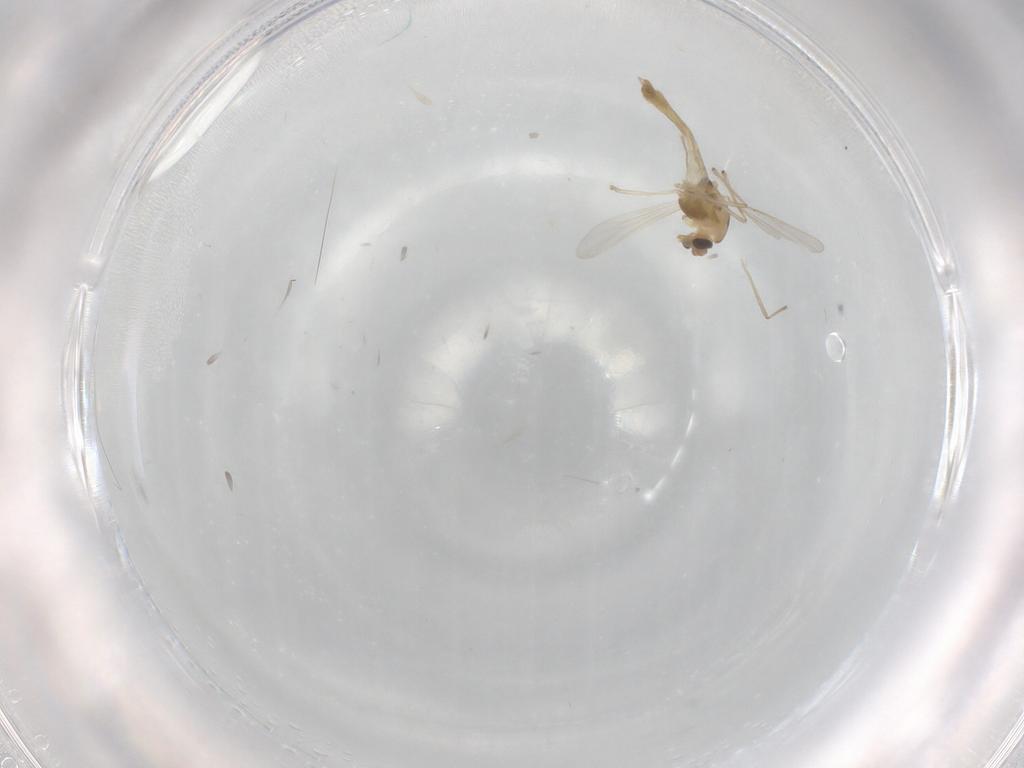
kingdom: Animalia
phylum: Arthropoda
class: Insecta
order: Diptera
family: Chironomidae
